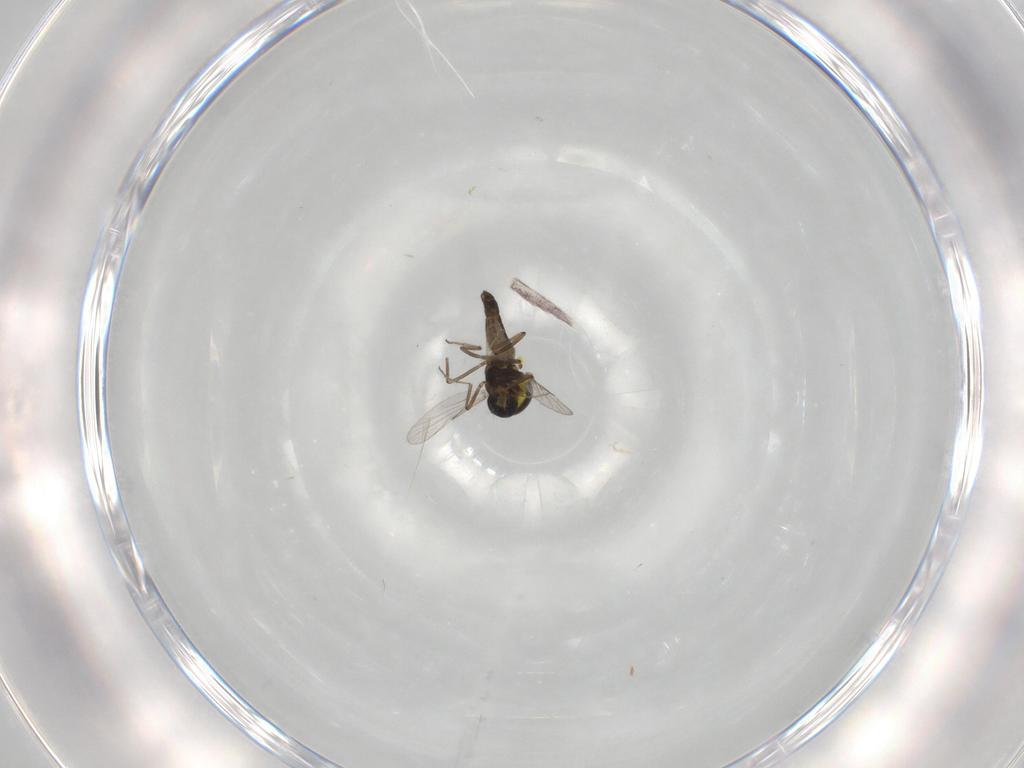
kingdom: Animalia
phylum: Arthropoda
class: Insecta
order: Diptera
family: Ceratopogonidae
